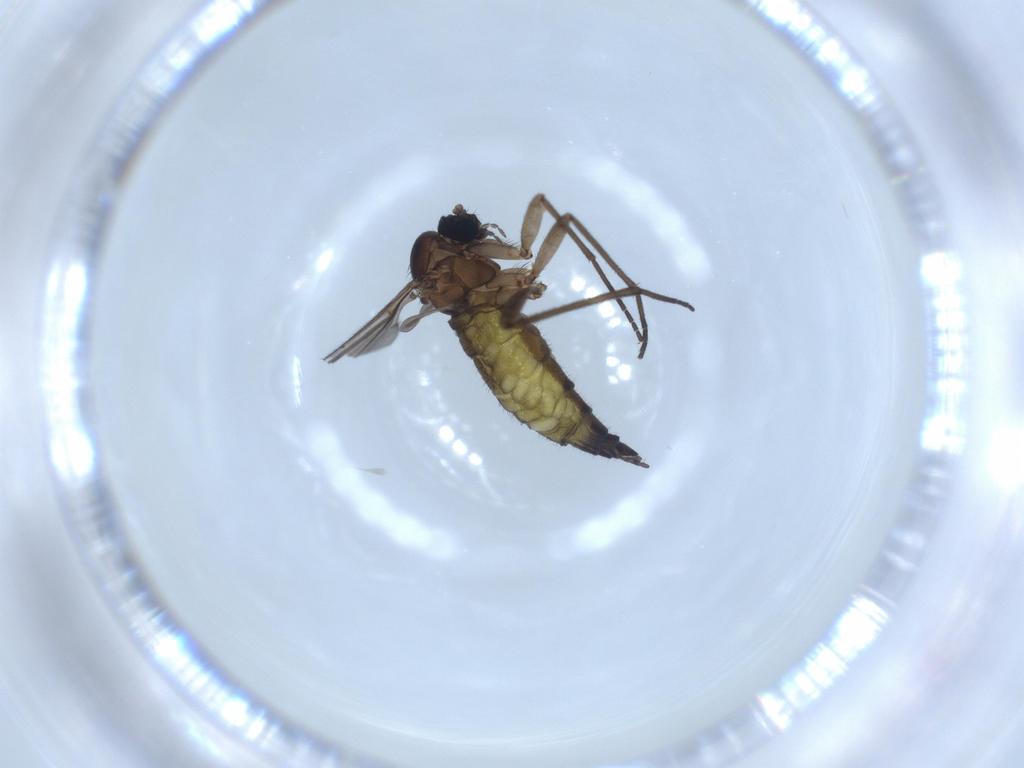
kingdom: Animalia
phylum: Arthropoda
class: Insecta
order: Diptera
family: Sciaridae
